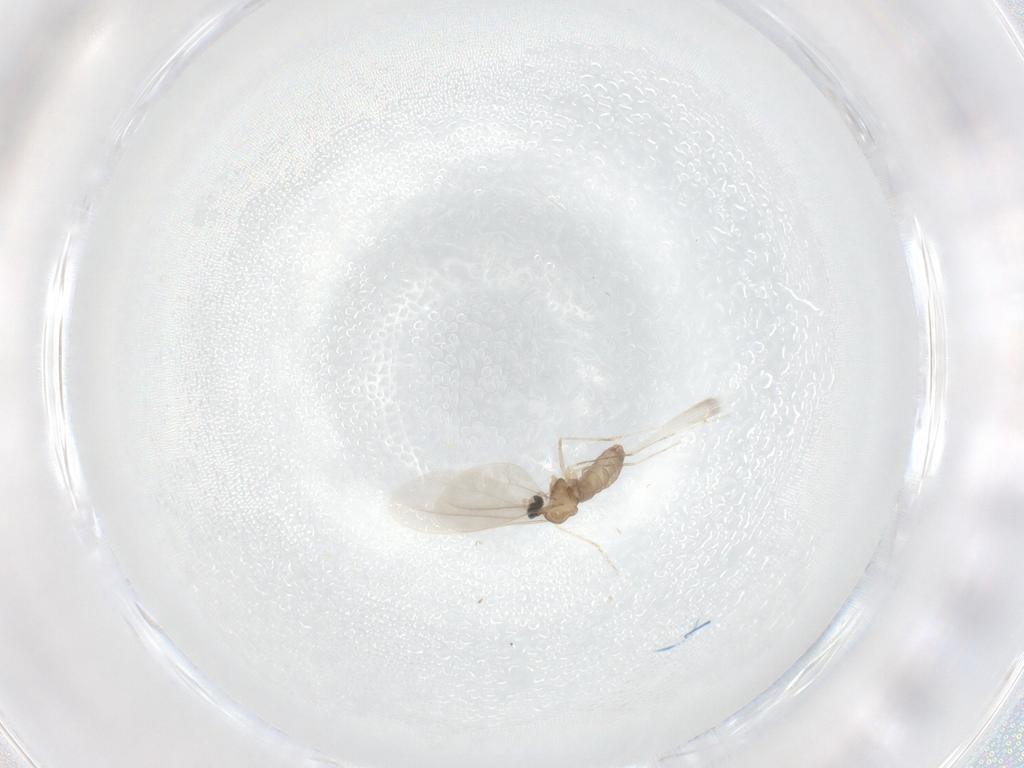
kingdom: Animalia
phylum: Arthropoda
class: Insecta
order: Diptera
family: Cecidomyiidae
